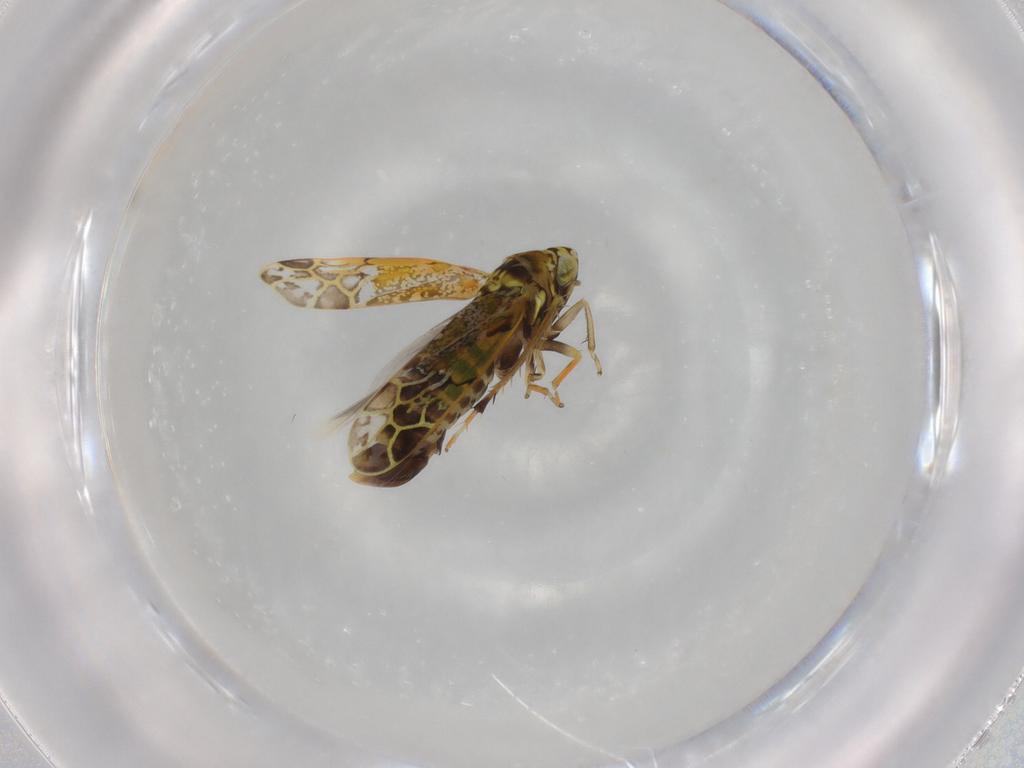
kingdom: Animalia
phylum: Arthropoda
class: Insecta
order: Hemiptera
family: Cicadellidae
